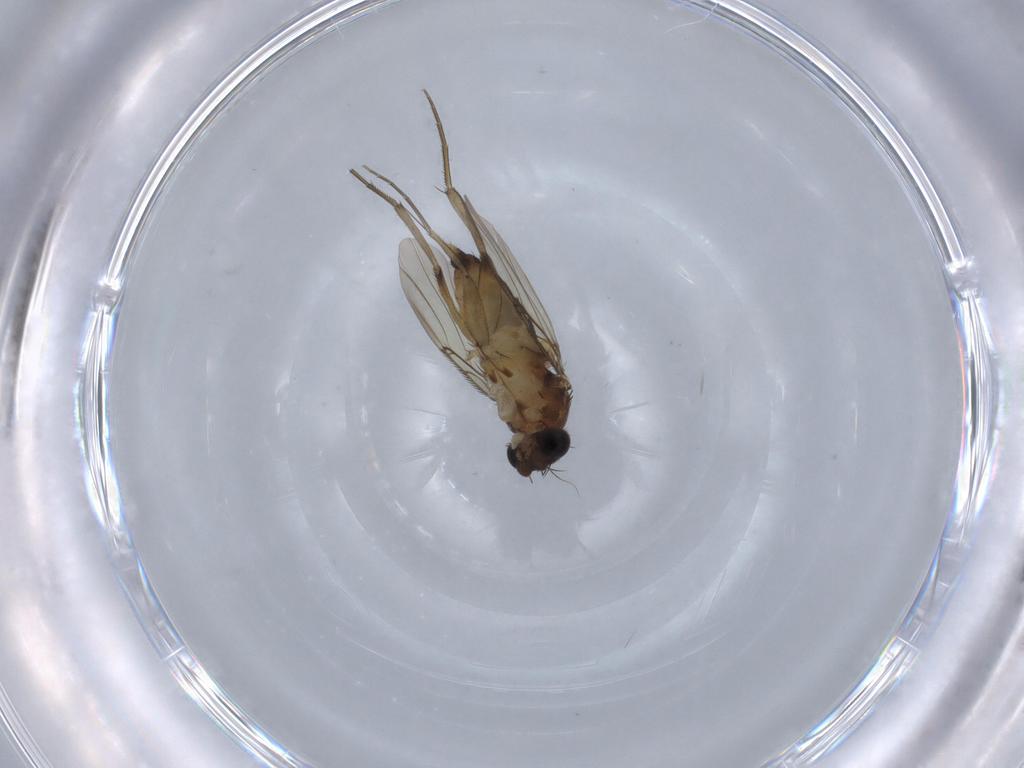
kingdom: Animalia
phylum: Arthropoda
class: Insecta
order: Diptera
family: Phoridae
